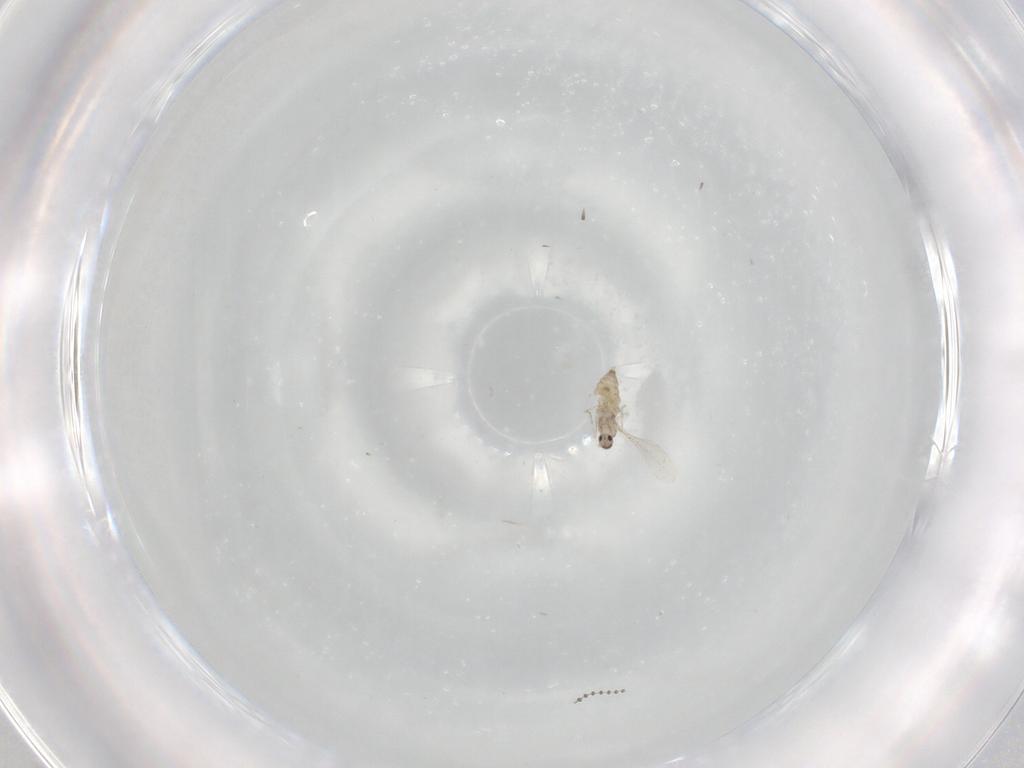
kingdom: Animalia
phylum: Arthropoda
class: Insecta
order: Diptera
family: Cecidomyiidae
